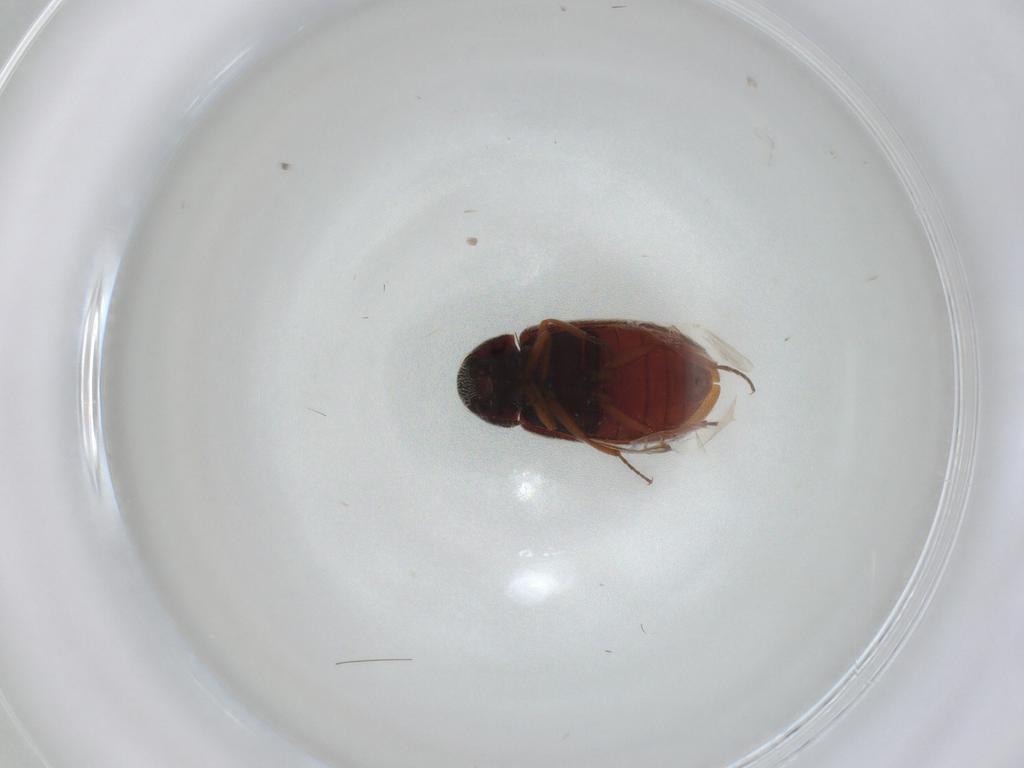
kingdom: Animalia
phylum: Arthropoda
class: Insecta
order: Coleoptera
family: Rhadalidae
